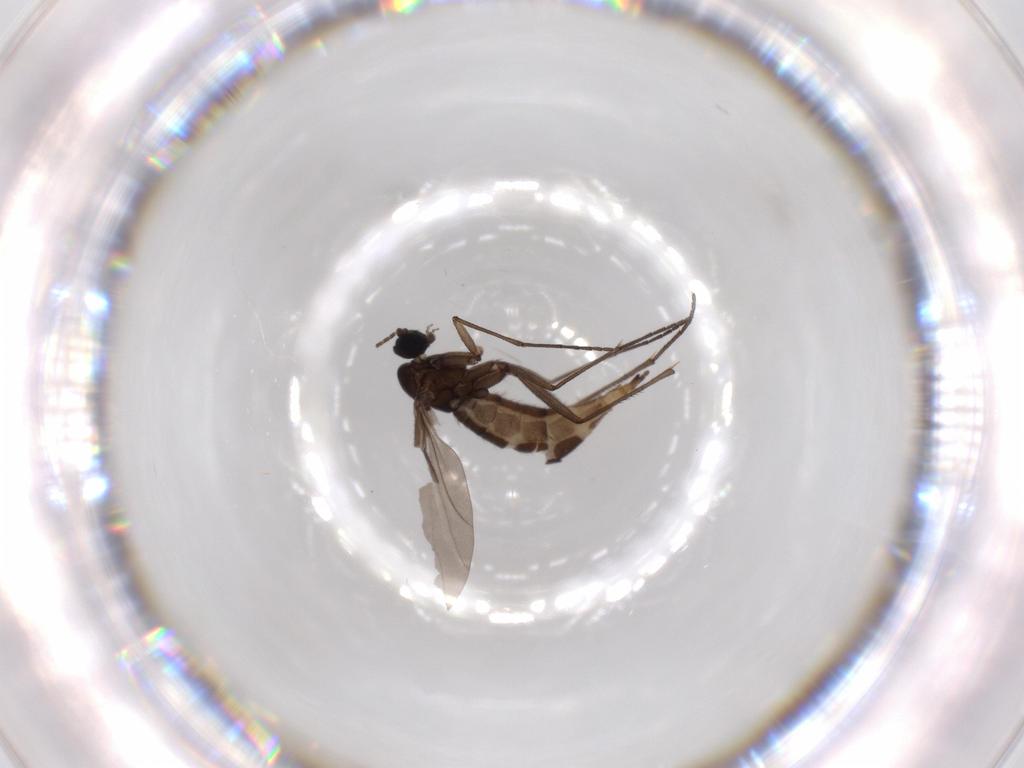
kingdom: Animalia
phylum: Arthropoda
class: Insecta
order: Diptera
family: Sciaridae
